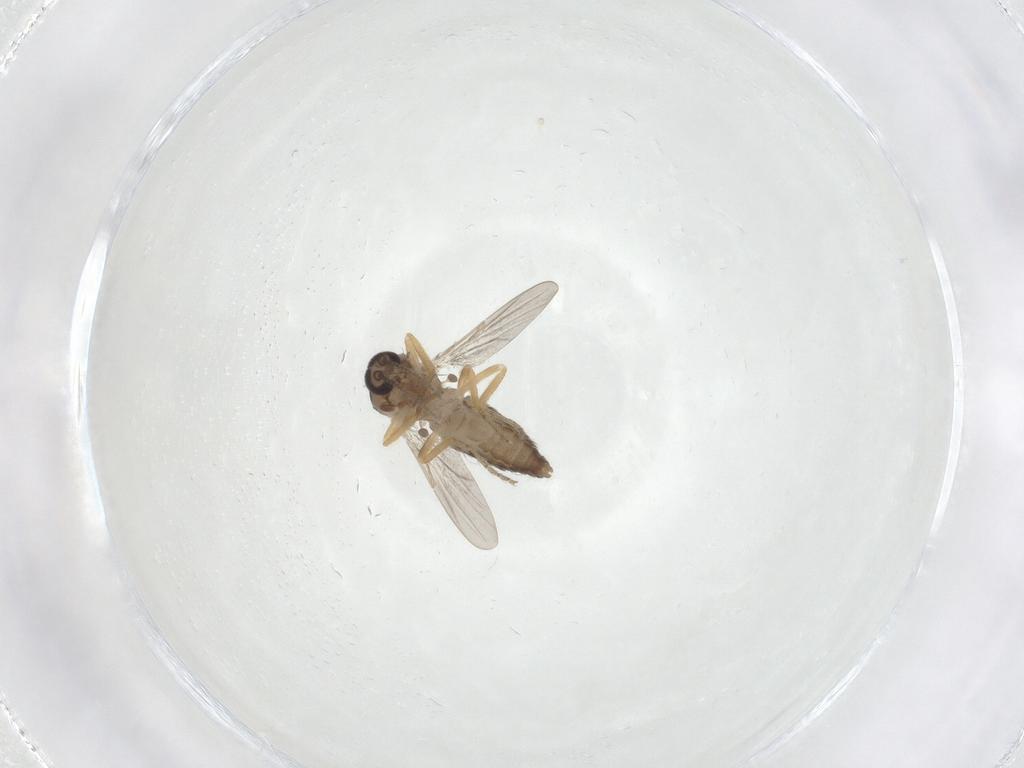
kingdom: Animalia
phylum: Arthropoda
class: Insecta
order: Diptera
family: Ceratopogonidae
